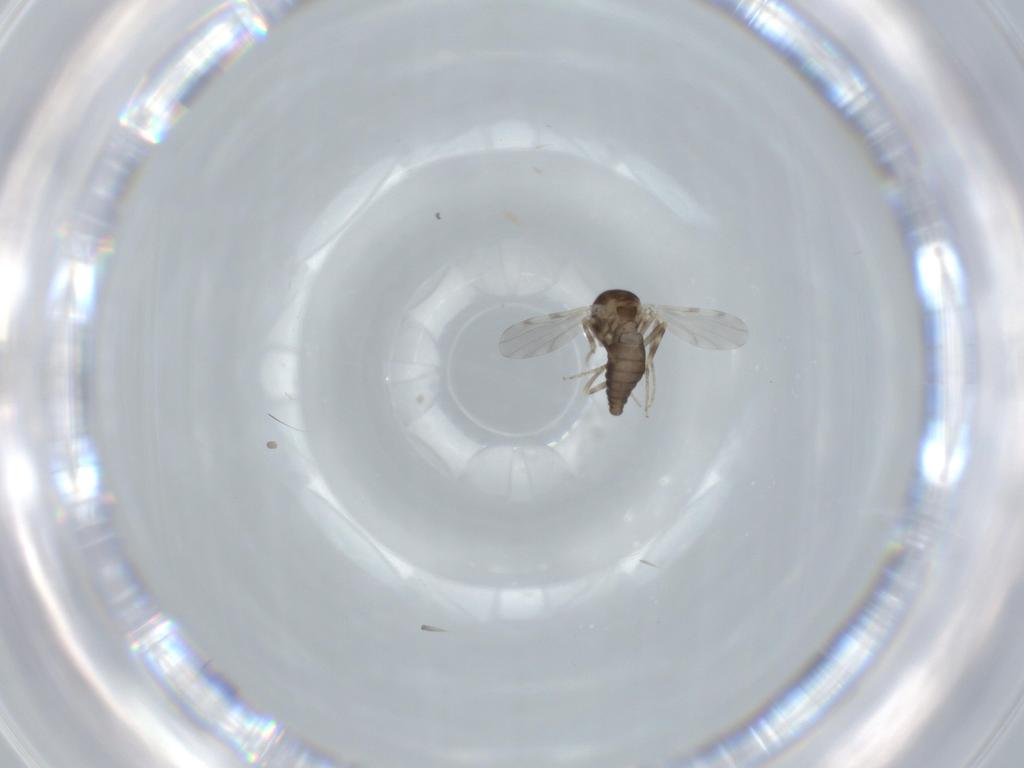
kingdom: Animalia
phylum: Arthropoda
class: Insecta
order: Diptera
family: Ceratopogonidae
